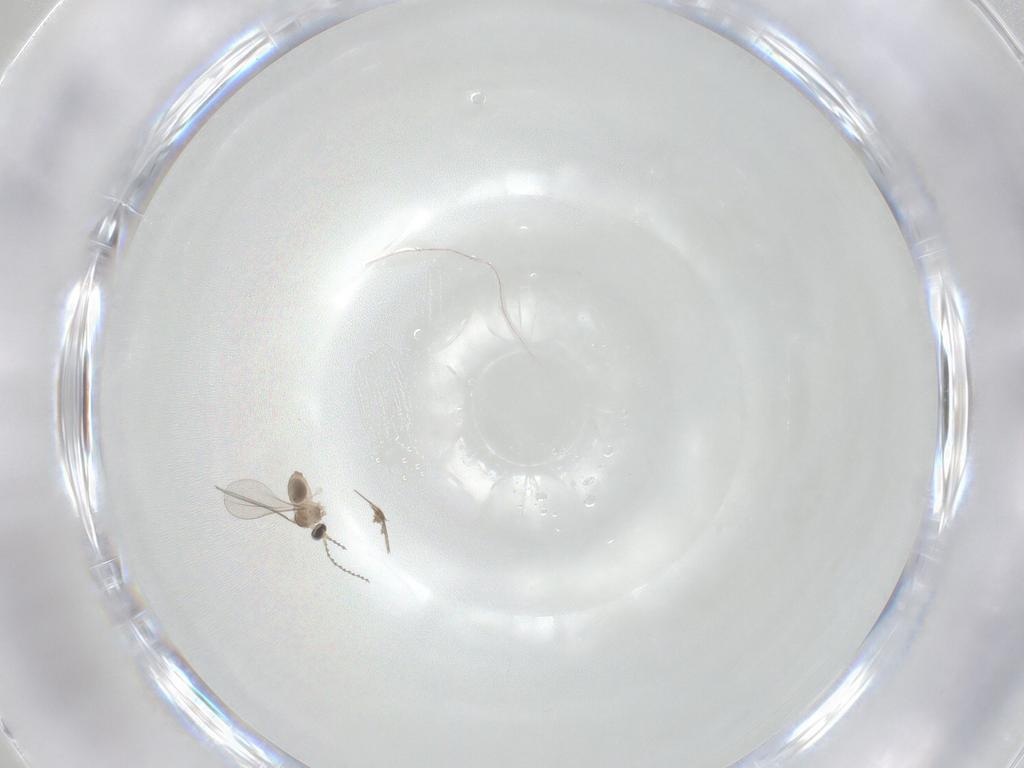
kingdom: Animalia
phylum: Arthropoda
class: Insecta
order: Diptera
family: Cecidomyiidae
